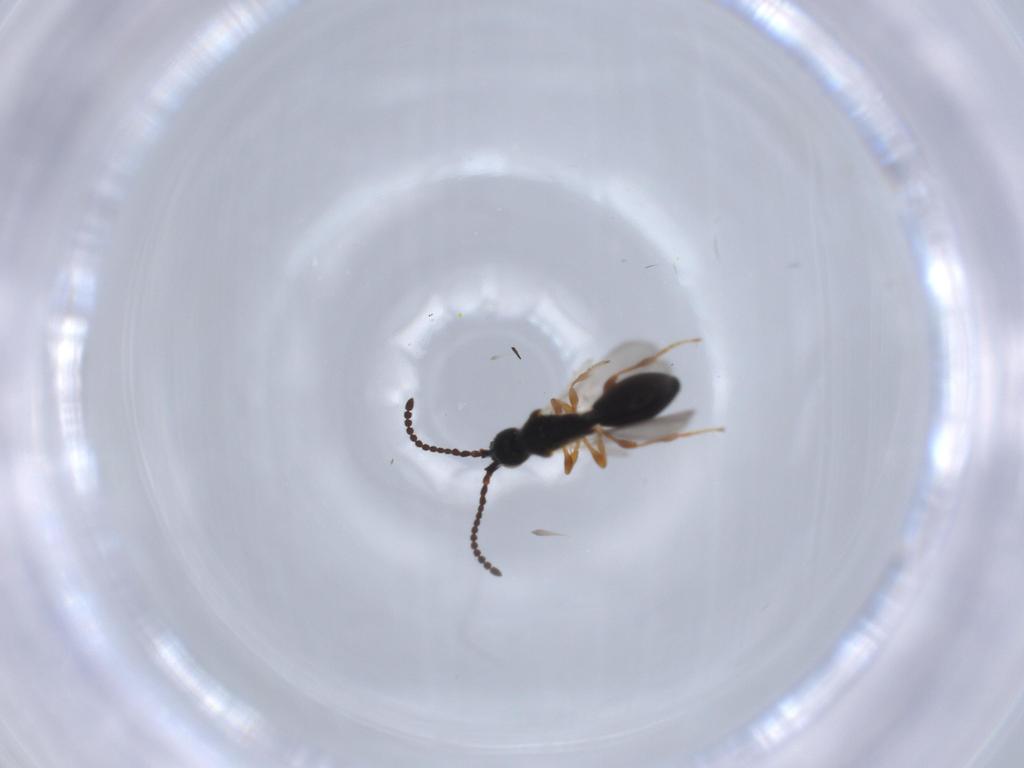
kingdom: Animalia
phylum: Arthropoda
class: Insecta
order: Hymenoptera
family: Diapriidae
